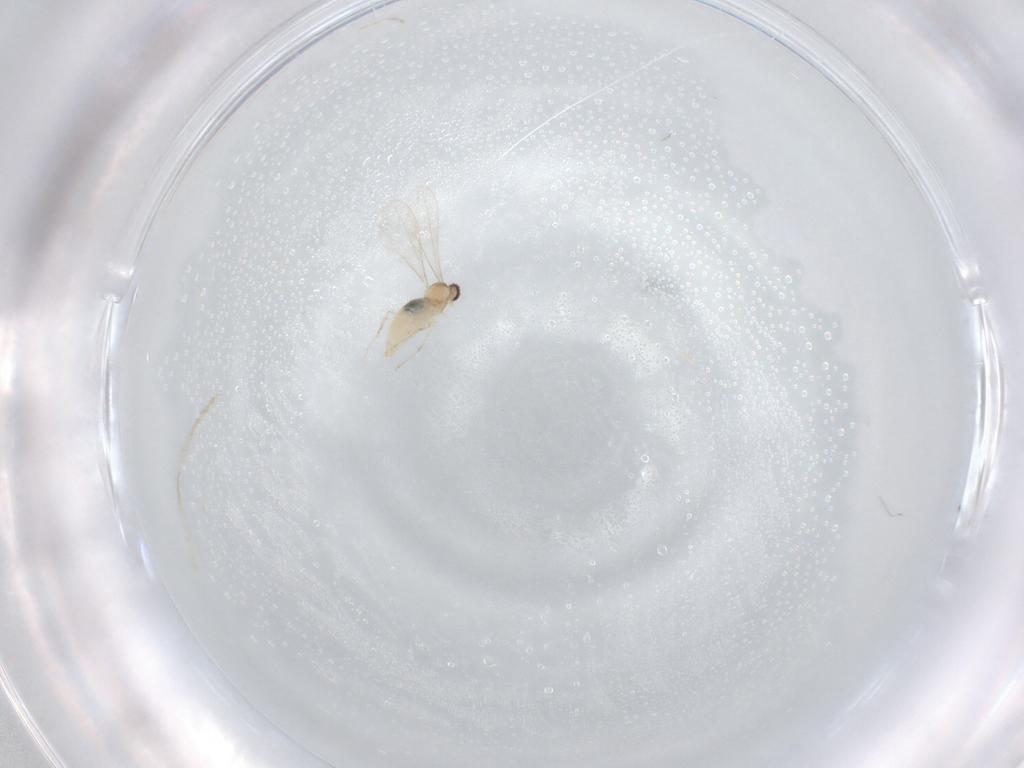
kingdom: Animalia
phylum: Arthropoda
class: Insecta
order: Diptera
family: Cecidomyiidae
